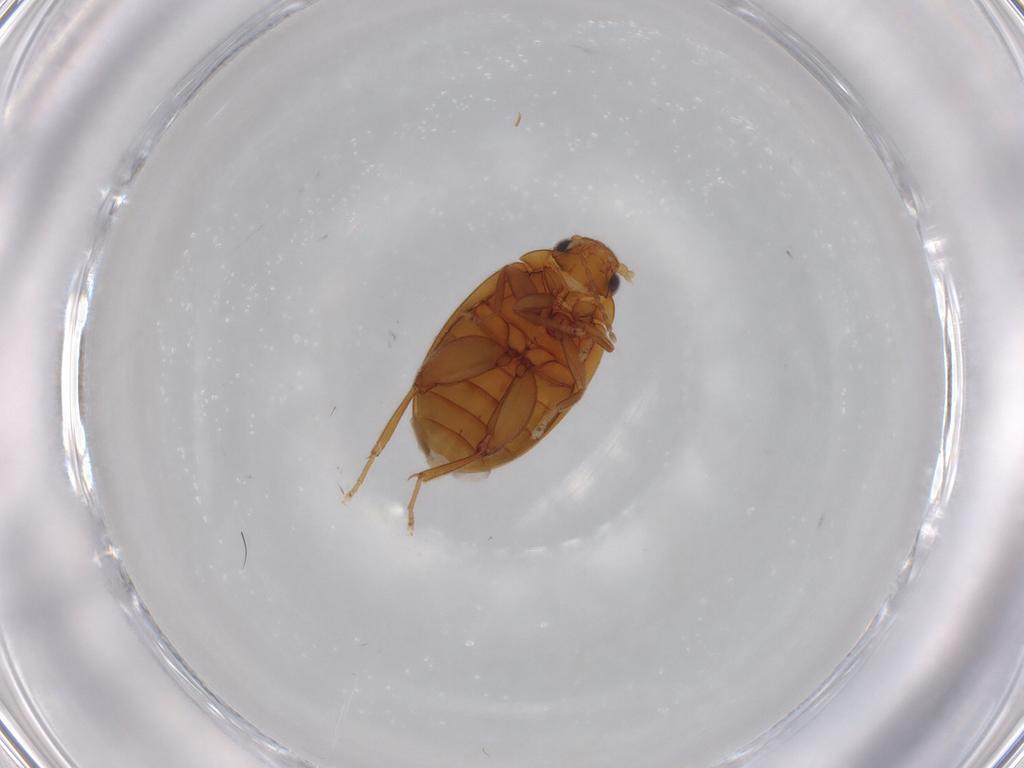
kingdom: Animalia
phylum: Arthropoda
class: Insecta
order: Coleoptera
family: Scirtidae
